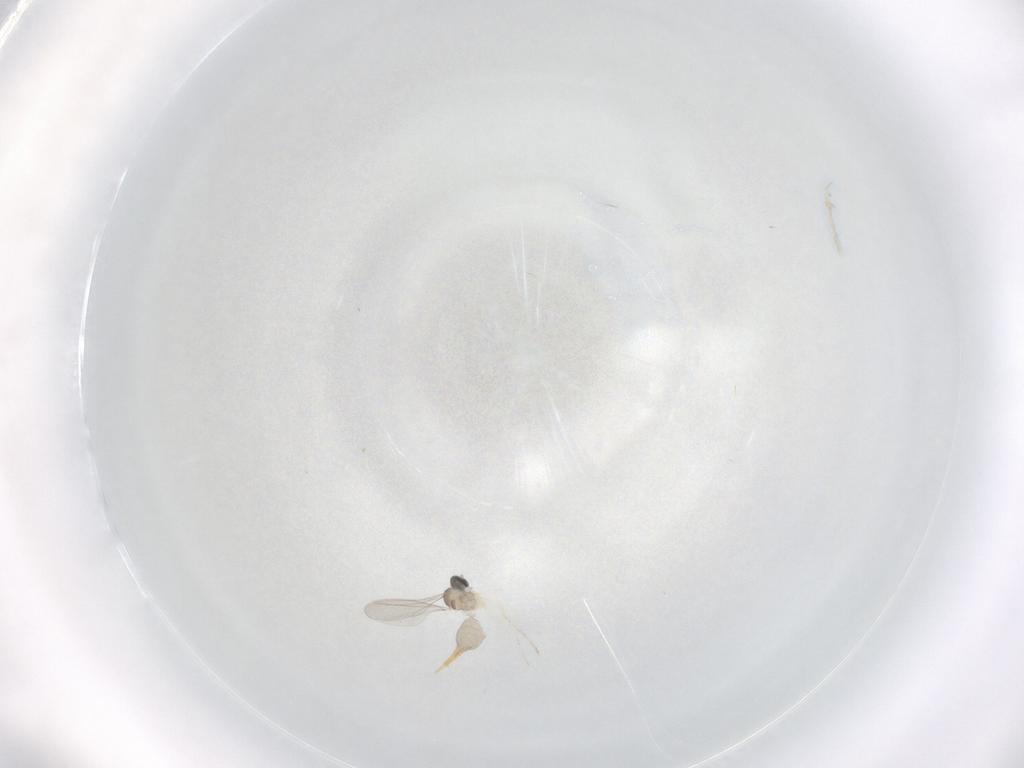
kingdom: Animalia
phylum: Arthropoda
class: Insecta
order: Diptera
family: Cecidomyiidae
